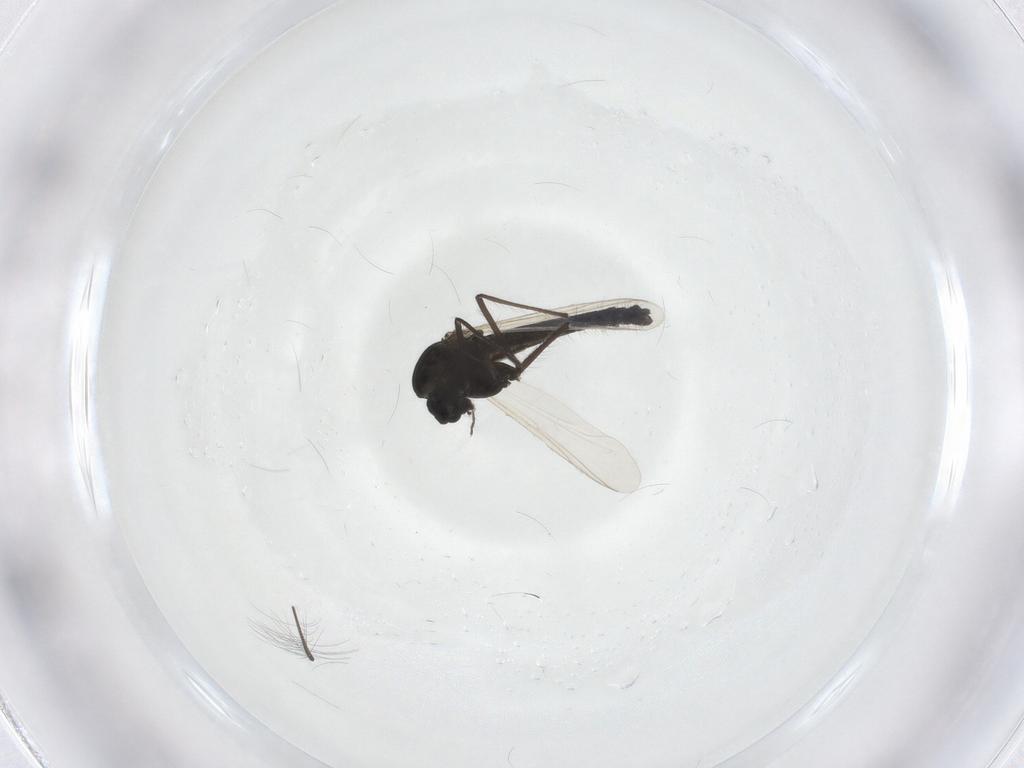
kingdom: Animalia
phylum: Arthropoda
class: Insecta
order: Diptera
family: Chironomidae
